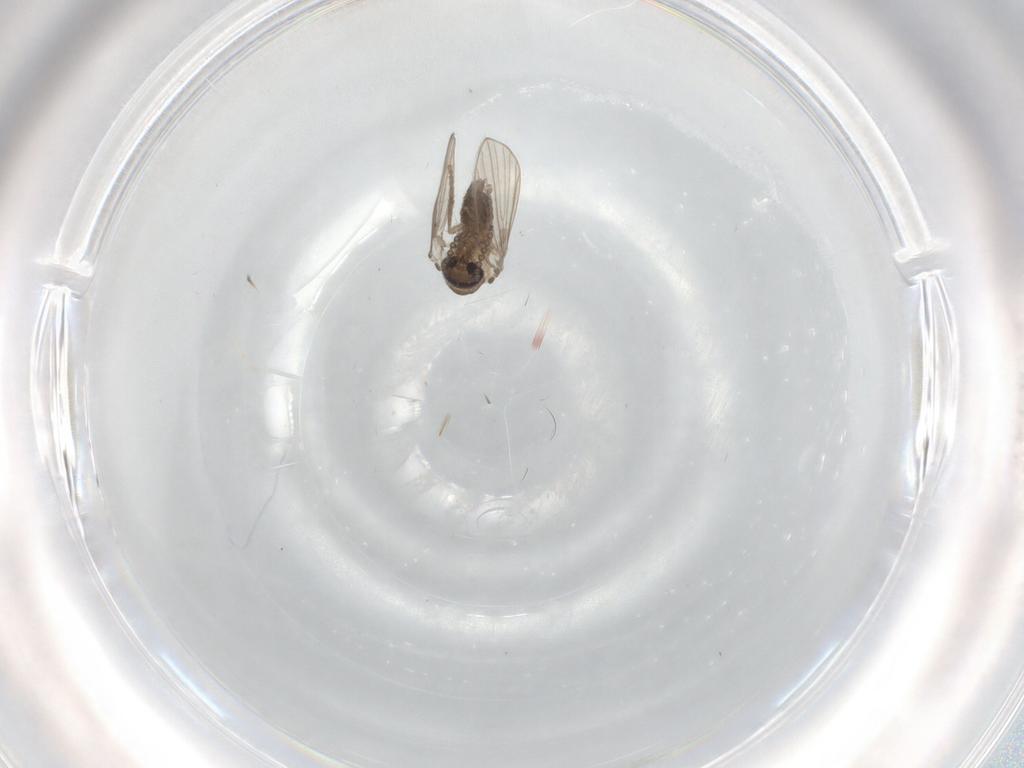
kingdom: Animalia
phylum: Arthropoda
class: Insecta
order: Diptera
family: Psychodidae
